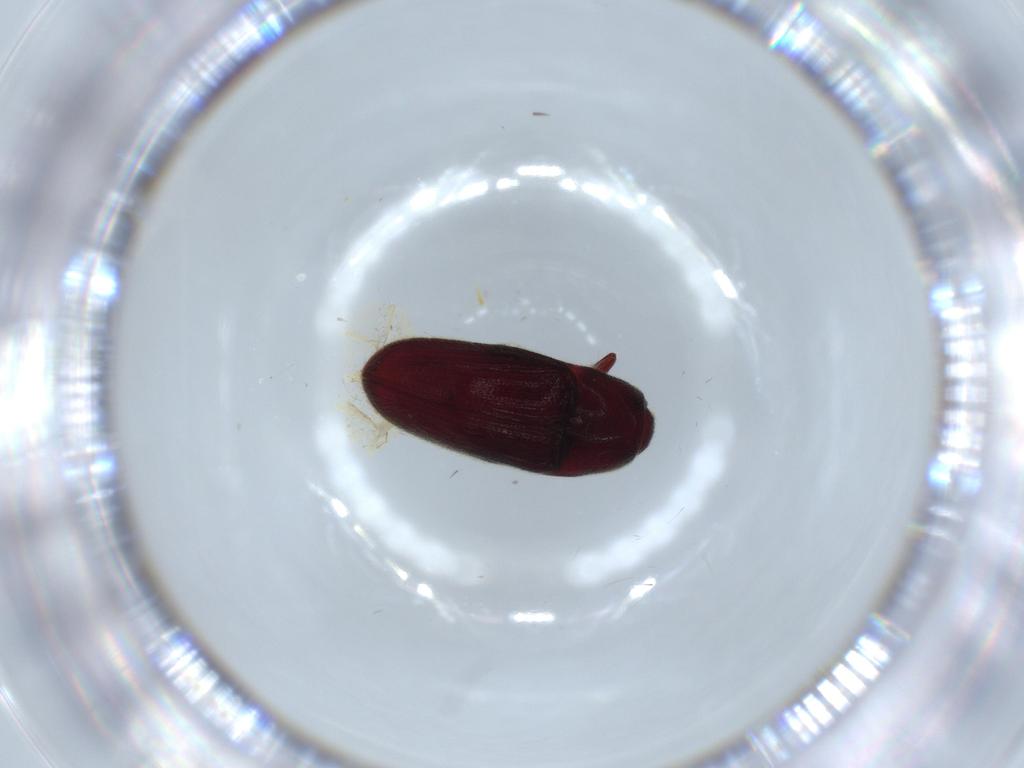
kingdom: Animalia
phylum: Arthropoda
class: Insecta
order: Coleoptera
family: Throscidae
